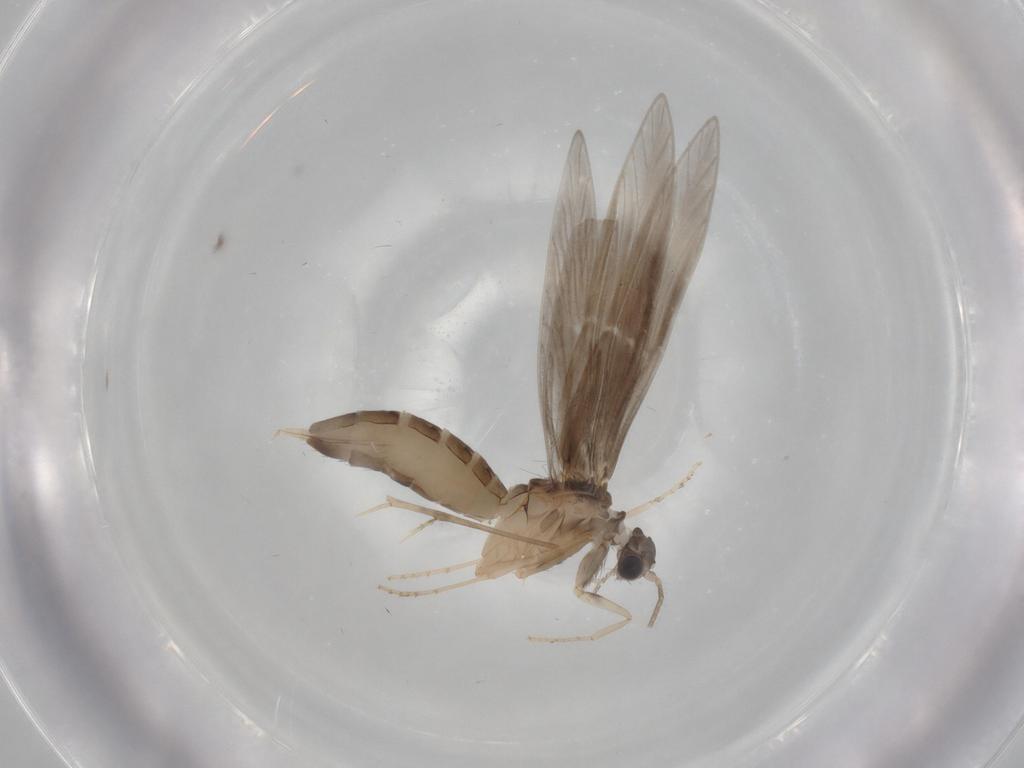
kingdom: Animalia
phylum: Arthropoda
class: Insecta
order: Trichoptera
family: Hydroptilidae
